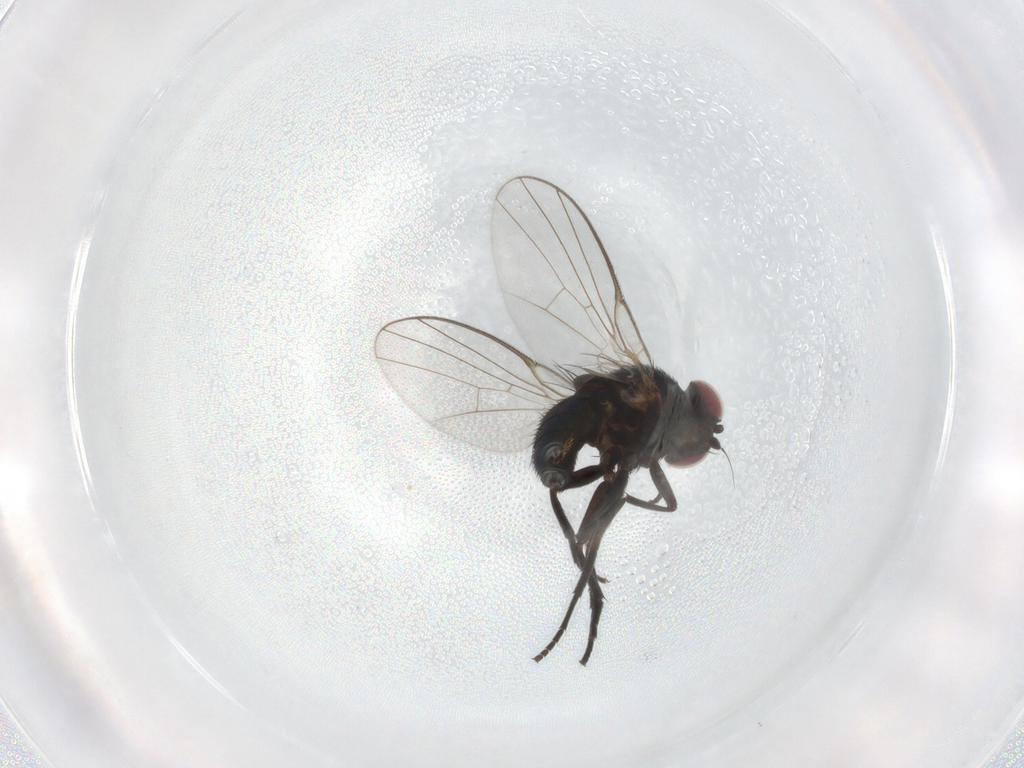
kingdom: Animalia
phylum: Arthropoda
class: Insecta
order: Diptera
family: Agromyzidae
